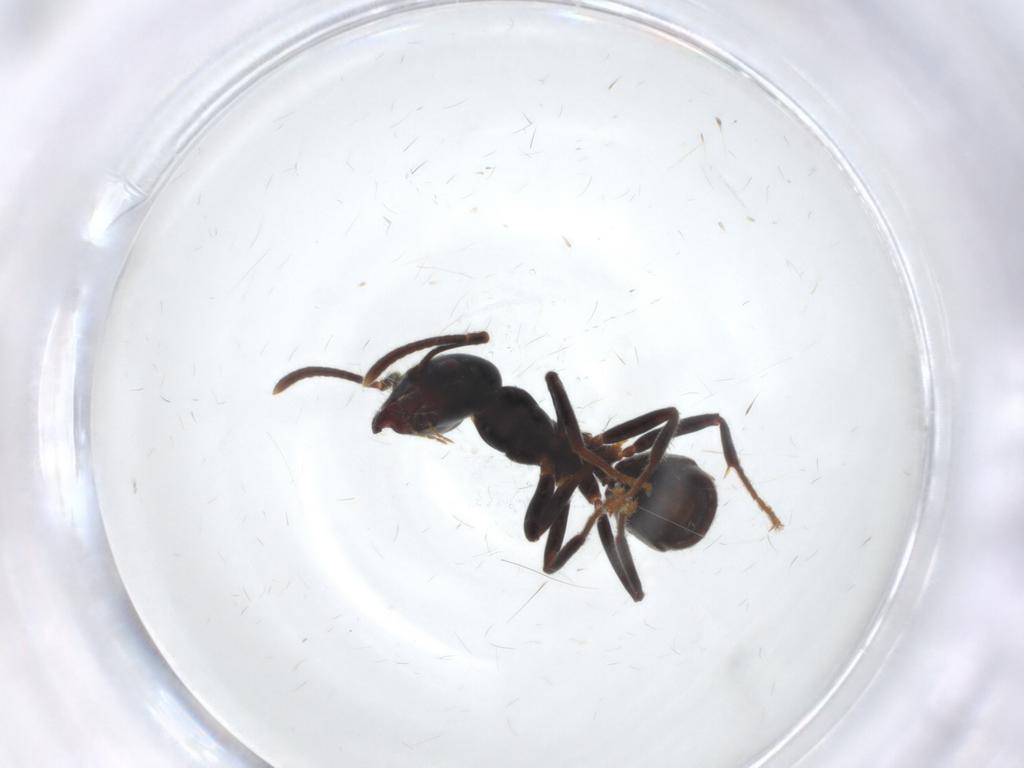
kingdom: Animalia
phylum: Arthropoda
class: Insecta
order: Hymenoptera
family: Formicidae
